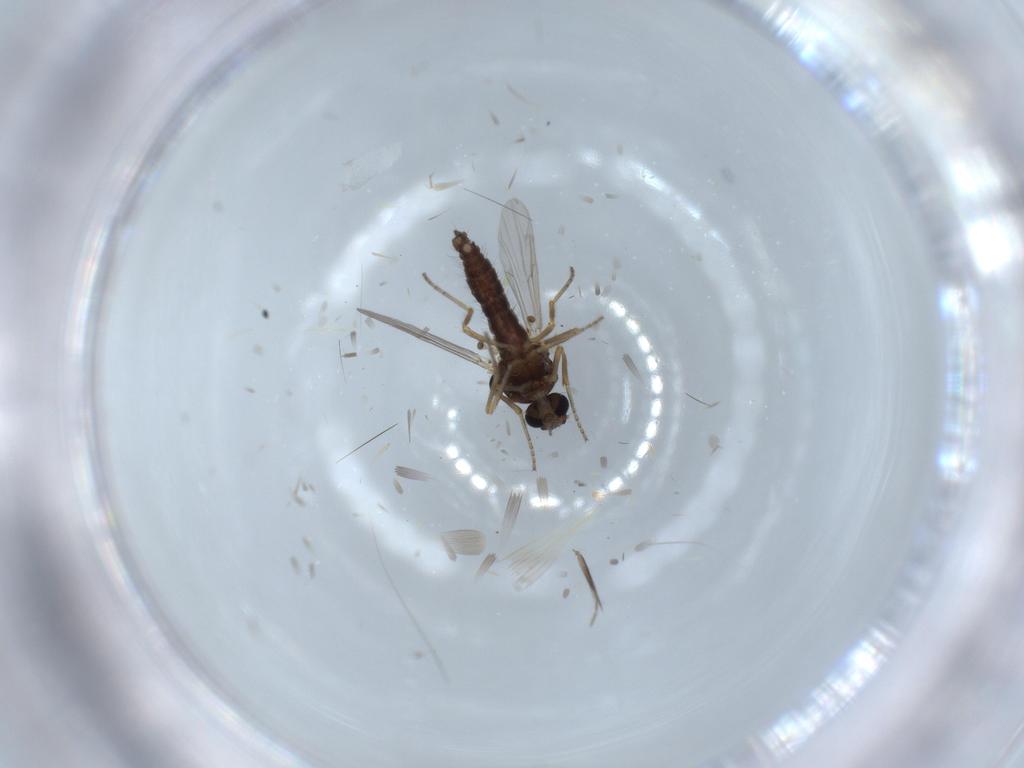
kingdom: Animalia
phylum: Arthropoda
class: Insecta
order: Diptera
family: Ceratopogonidae
